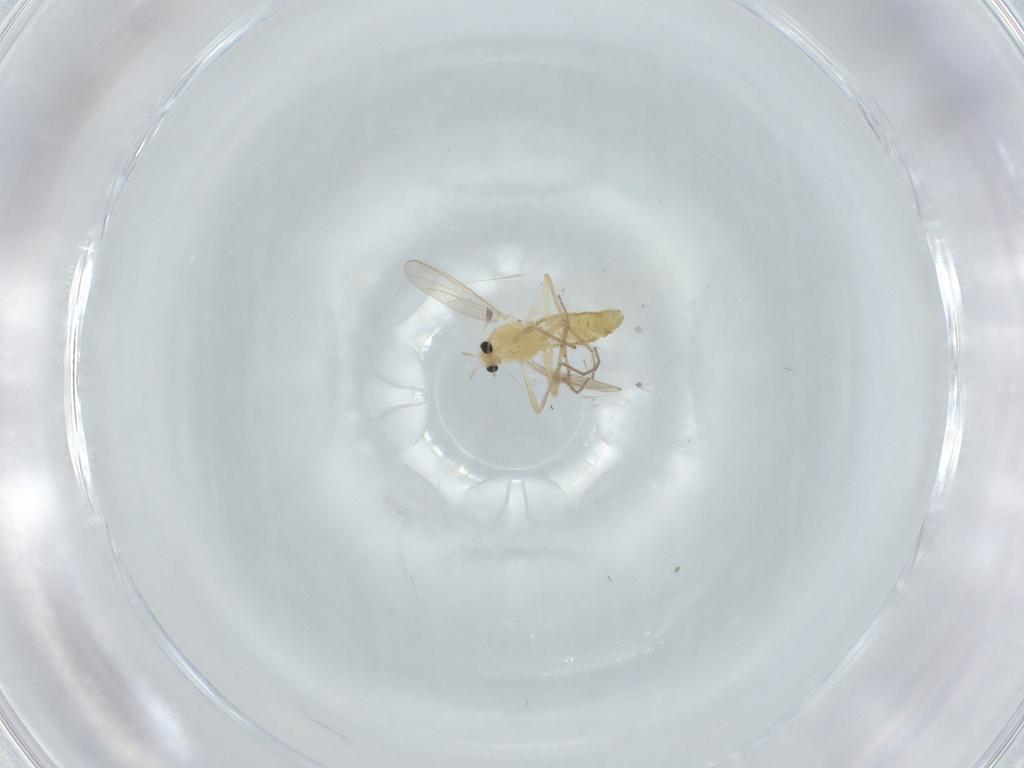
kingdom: Animalia
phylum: Arthropoda
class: Insecta
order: Diptera
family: Chironomidae
